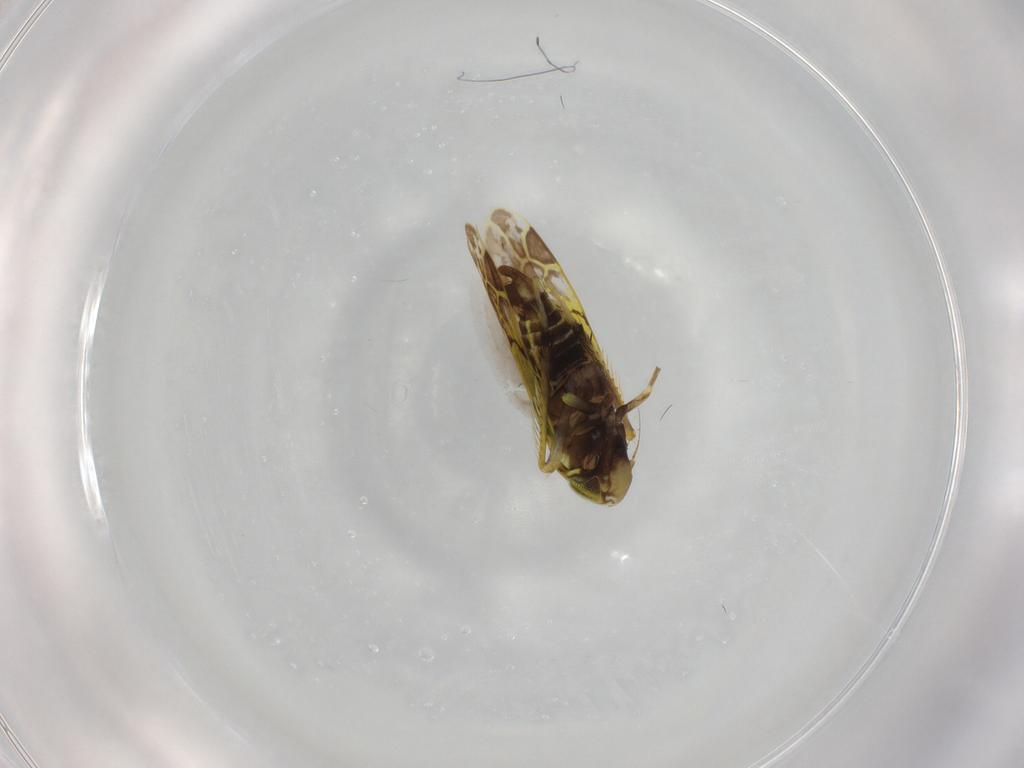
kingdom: Animalia
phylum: Arthropoda
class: Insecta
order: Hemiptera
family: Cicadellidae
